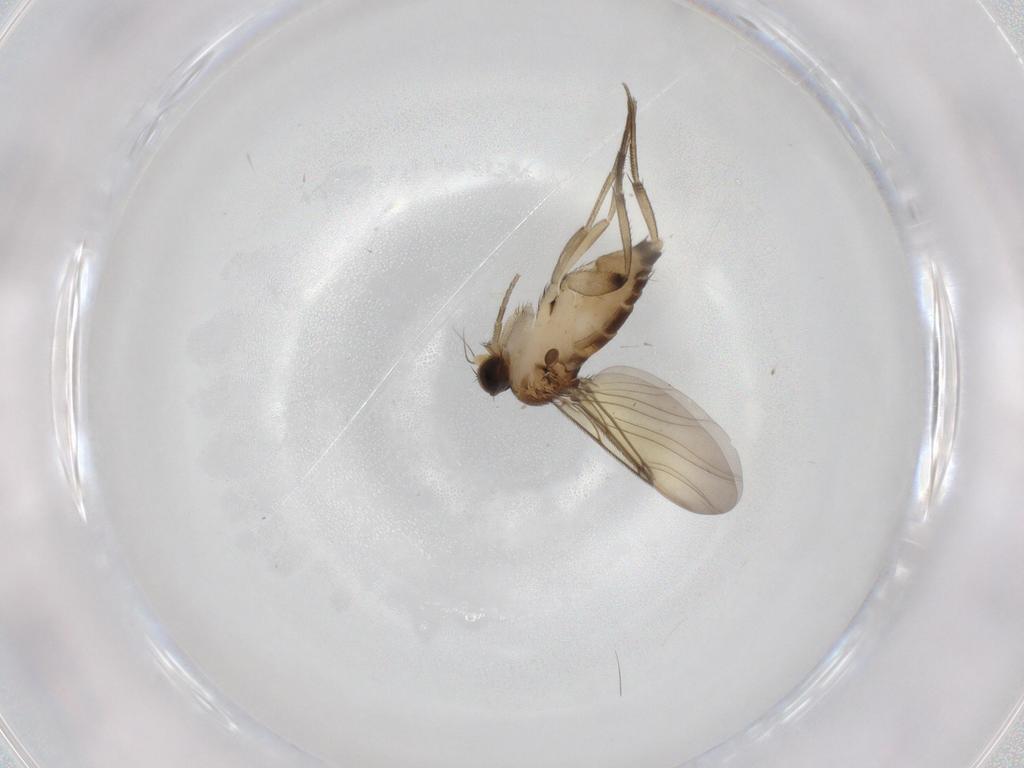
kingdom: Animalia
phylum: Arthropoda
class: Insecta
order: Diptera
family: Phoridae
